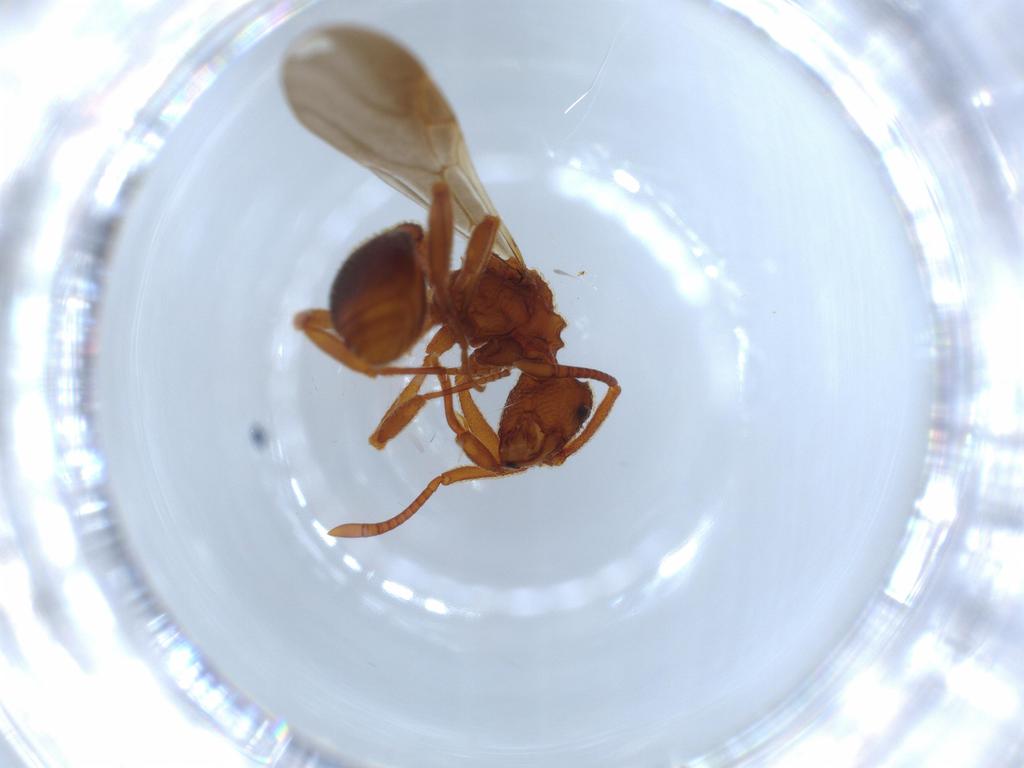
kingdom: Animalia
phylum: Arthropoda
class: Insecta
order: Hymenoptera
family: Formicidae
